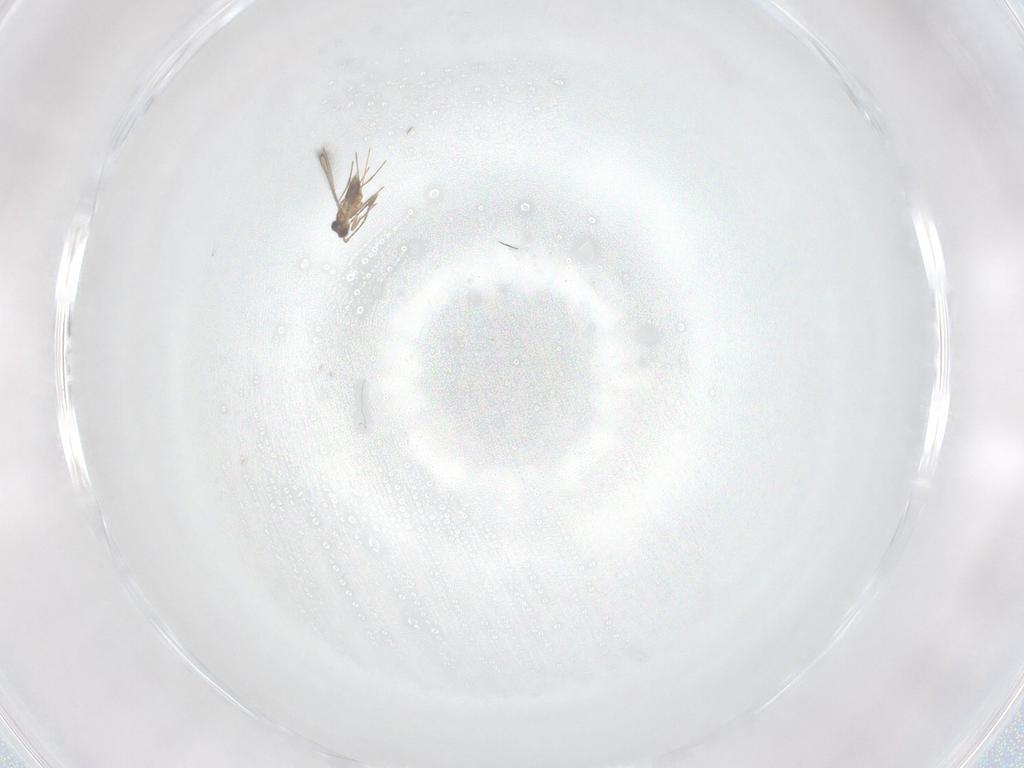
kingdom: Animalia
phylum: Arthropoda
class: Insecta
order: Hymenoptera
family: Mymaridae
